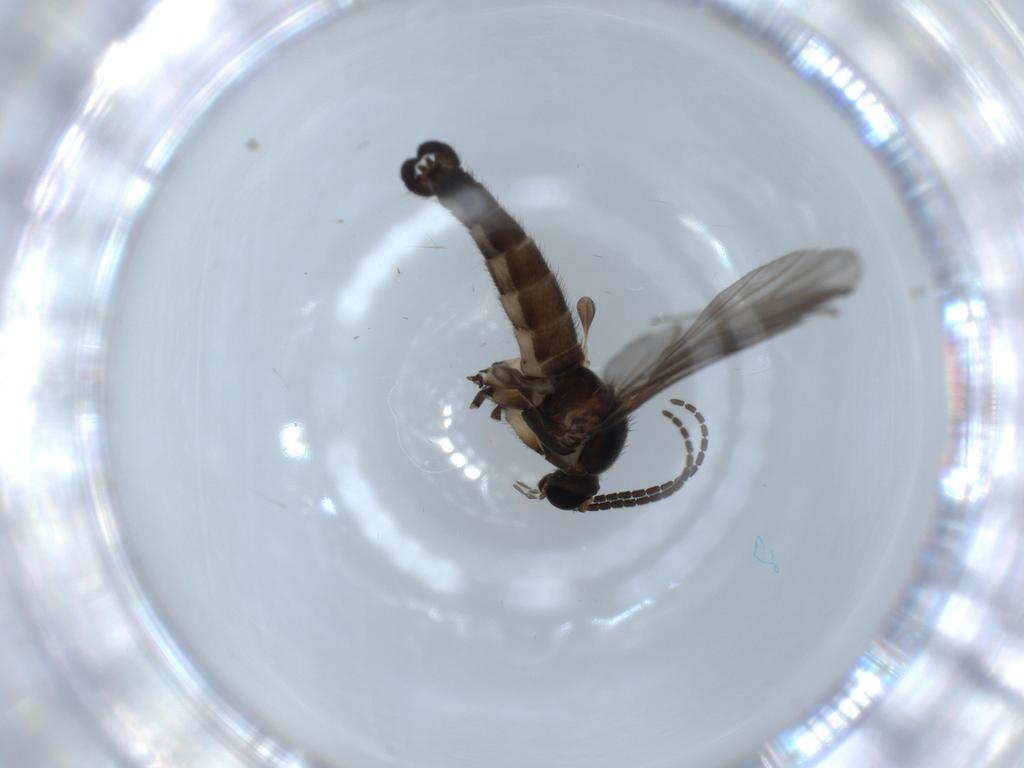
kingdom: Animalia
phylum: Arthropoda
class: Insecta
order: Diptera
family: Sciaridae
